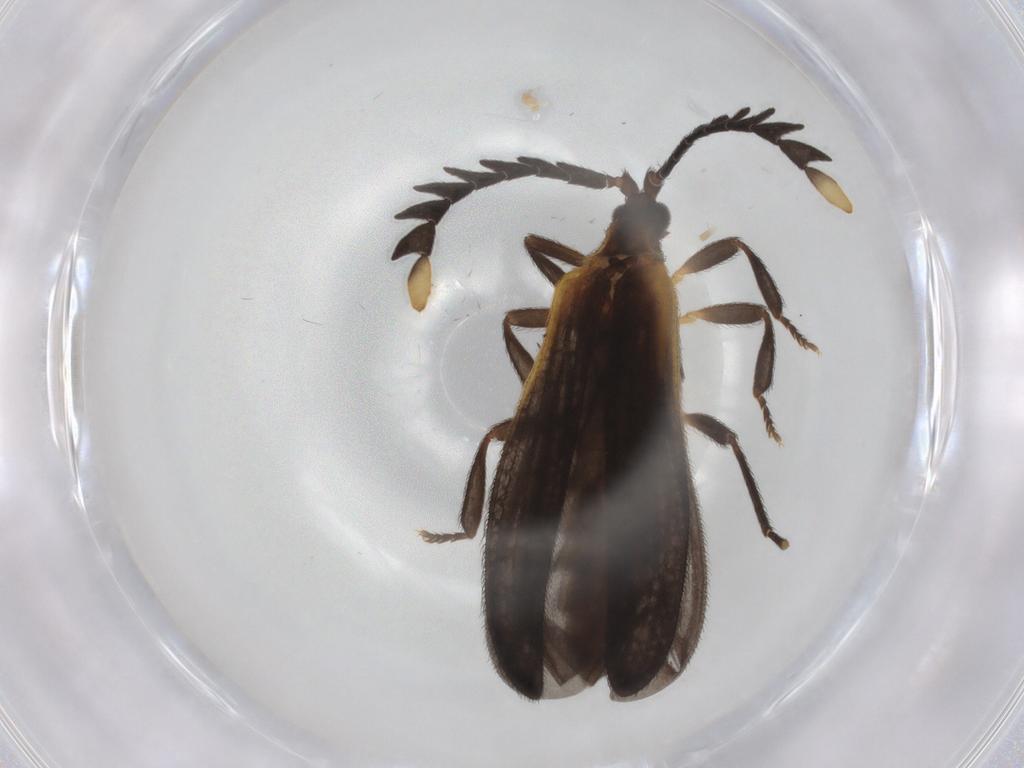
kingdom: Animalia
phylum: Arthropoda
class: Insecta
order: Coleoptera
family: Lycidae
